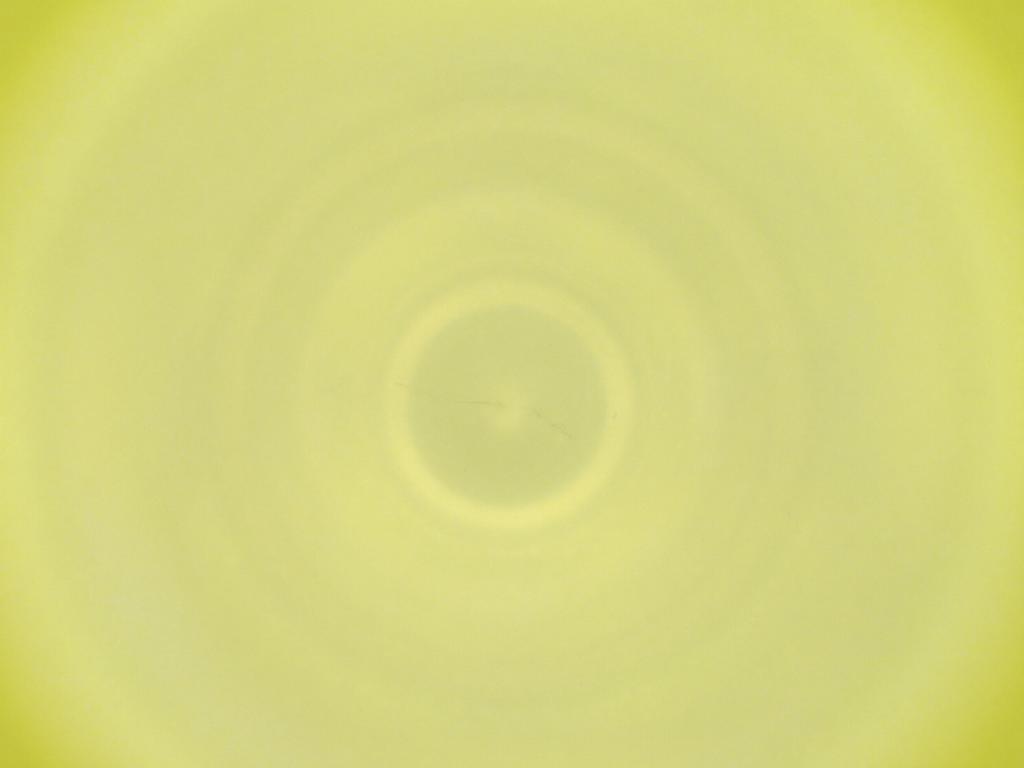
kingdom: Animalia
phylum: Arthropoda
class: Insecta
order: Diptera
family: Cecidomyiidae
